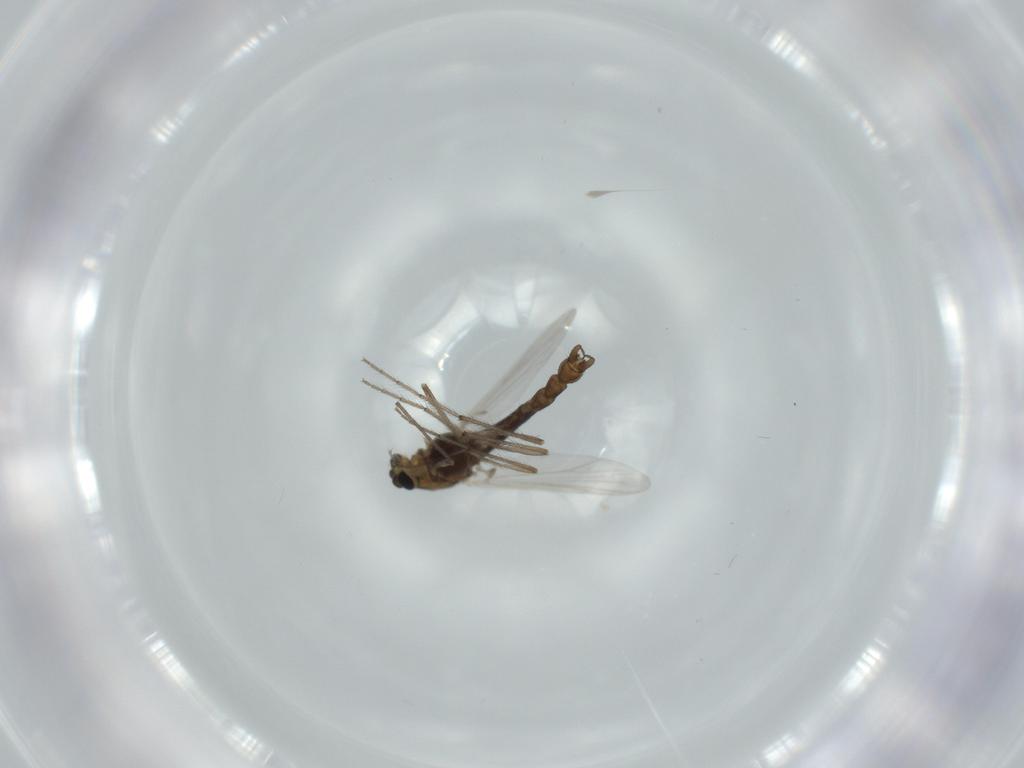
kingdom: Animalia
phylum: Arthropoda
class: Insecta
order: Diptera
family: Chironomidae
